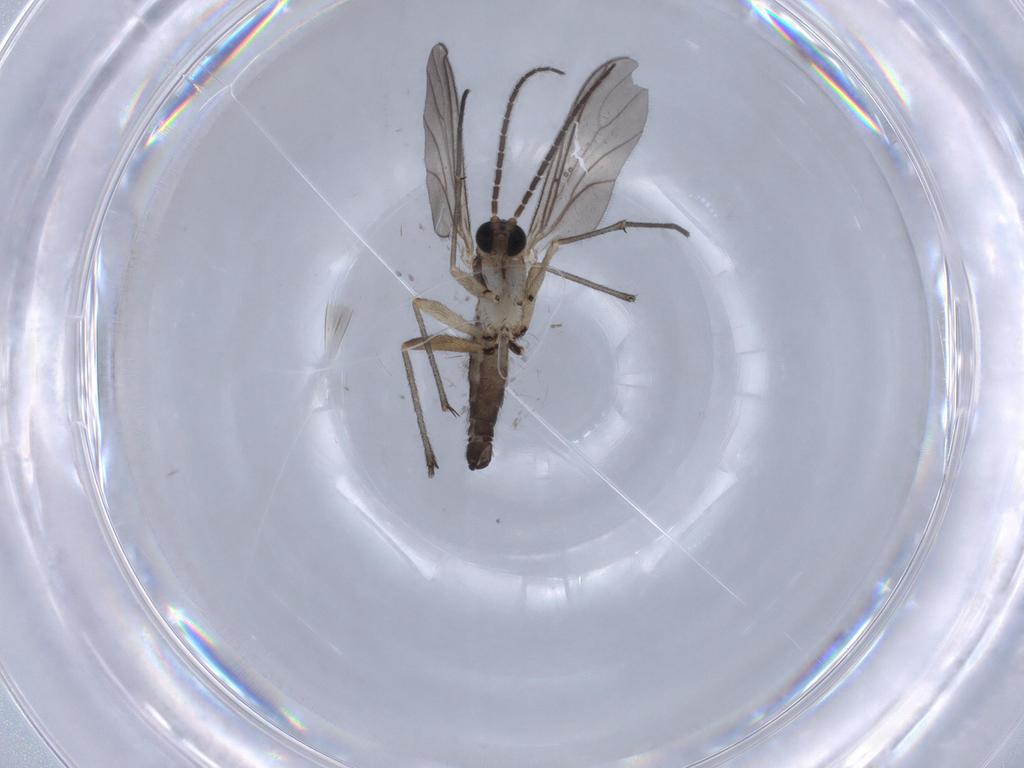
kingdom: Animalia
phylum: Arthropoda
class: Insecta
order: Diptera
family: Sciaridae
